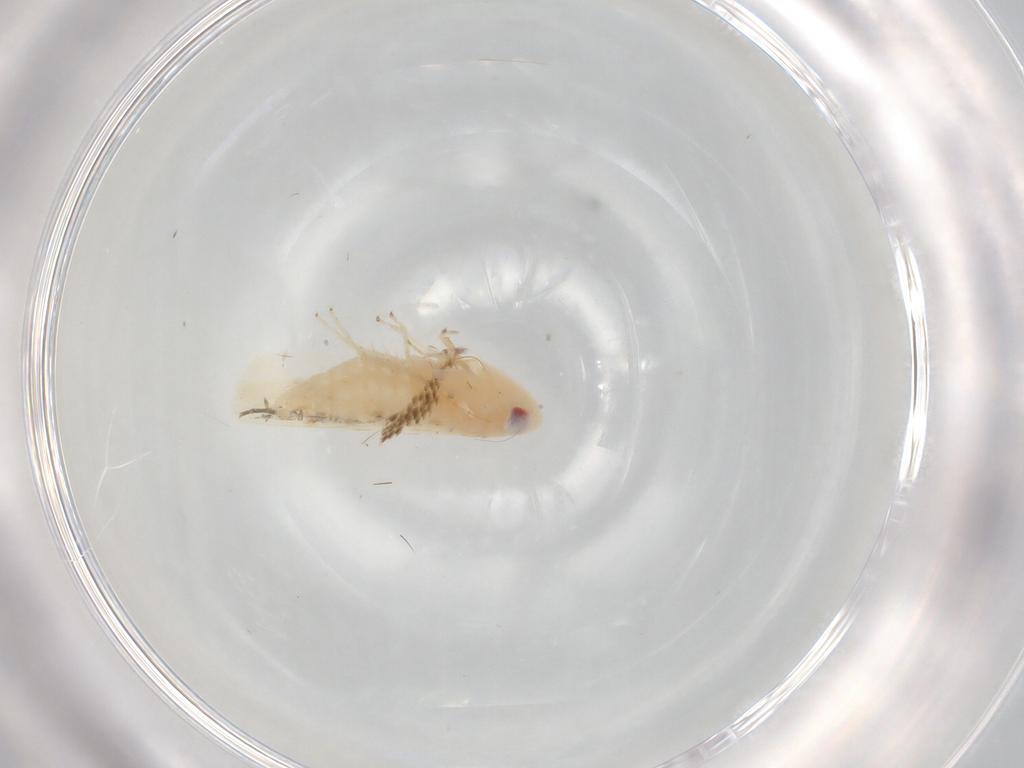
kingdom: Animalia
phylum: Arthropoda
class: Insecta
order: Hemiptera
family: Cicadellidae
